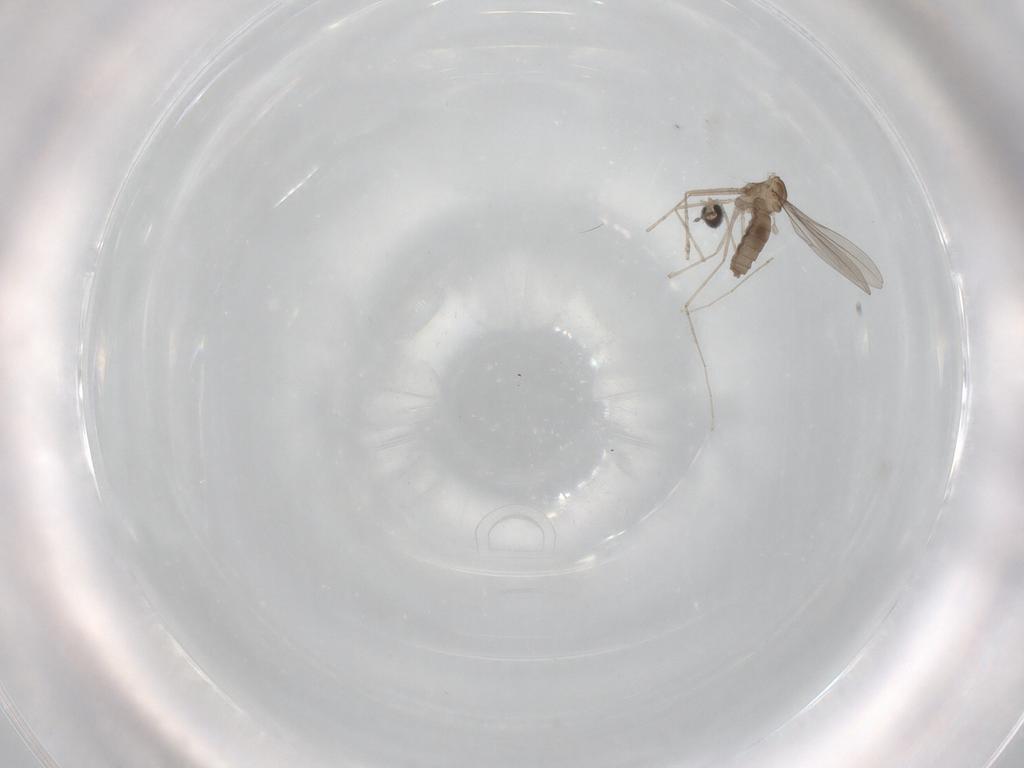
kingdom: Animalia
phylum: Arthropoda
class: Insecta
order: Diptera
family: Cecidomyiidae
